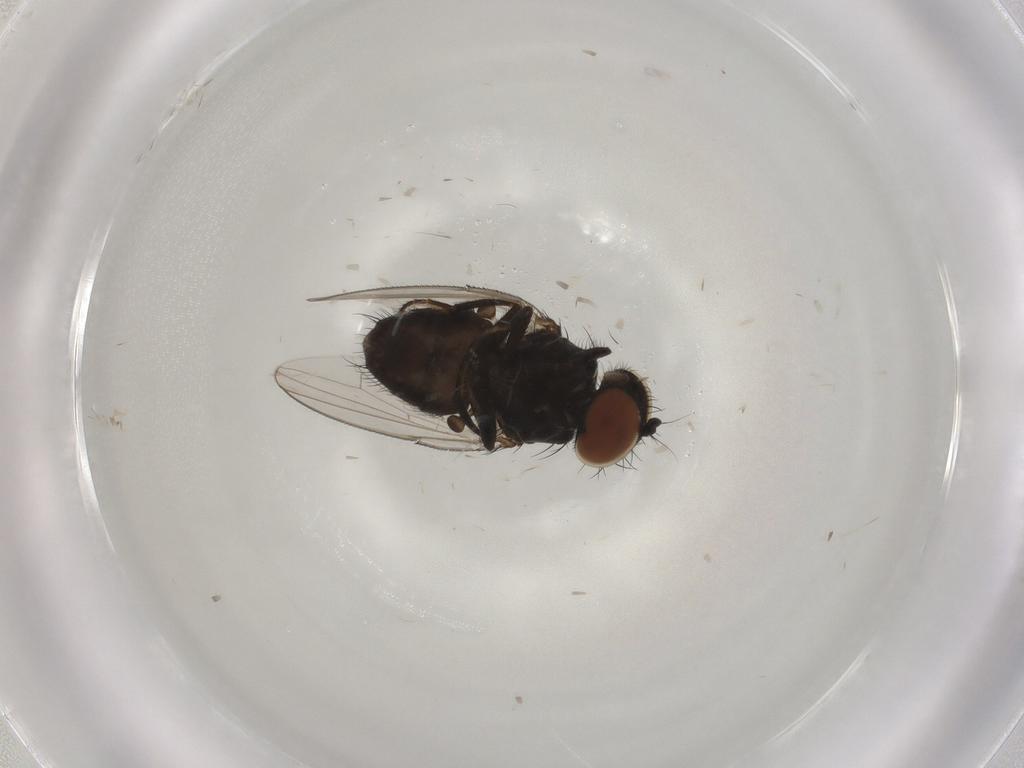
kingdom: Animalia
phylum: Arthropoda
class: Insecta
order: Diptera
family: Milichiidae
